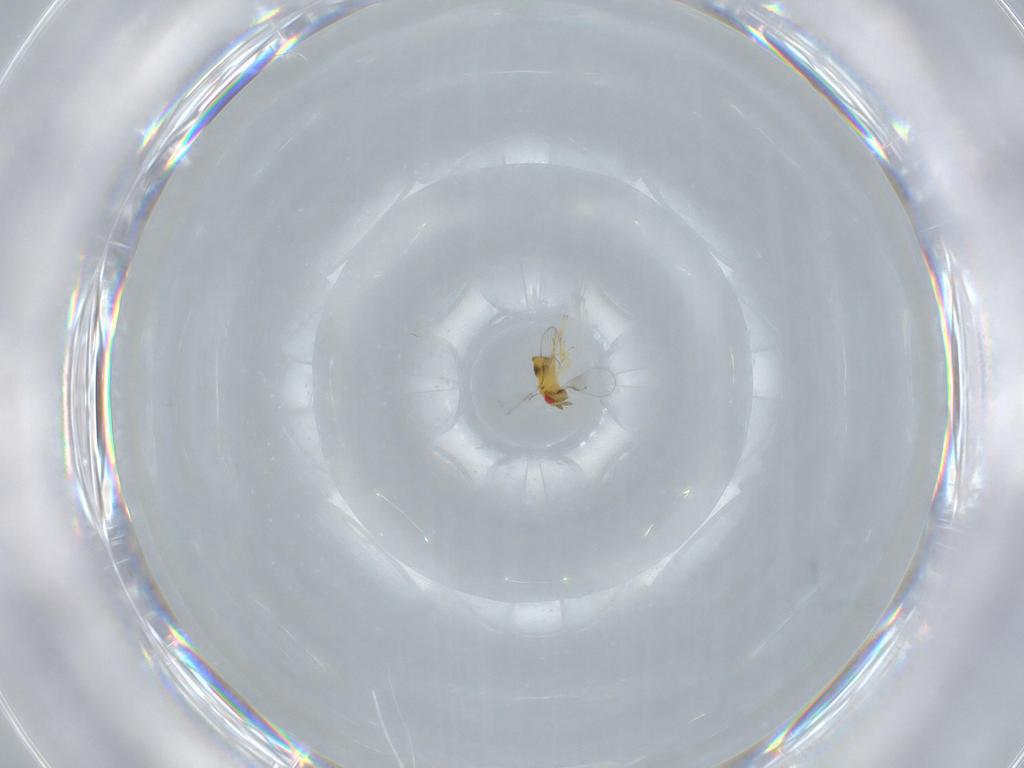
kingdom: Animalia
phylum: Arthropoda
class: Insecta
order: Hymenoptera
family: Trichogrammatidae
